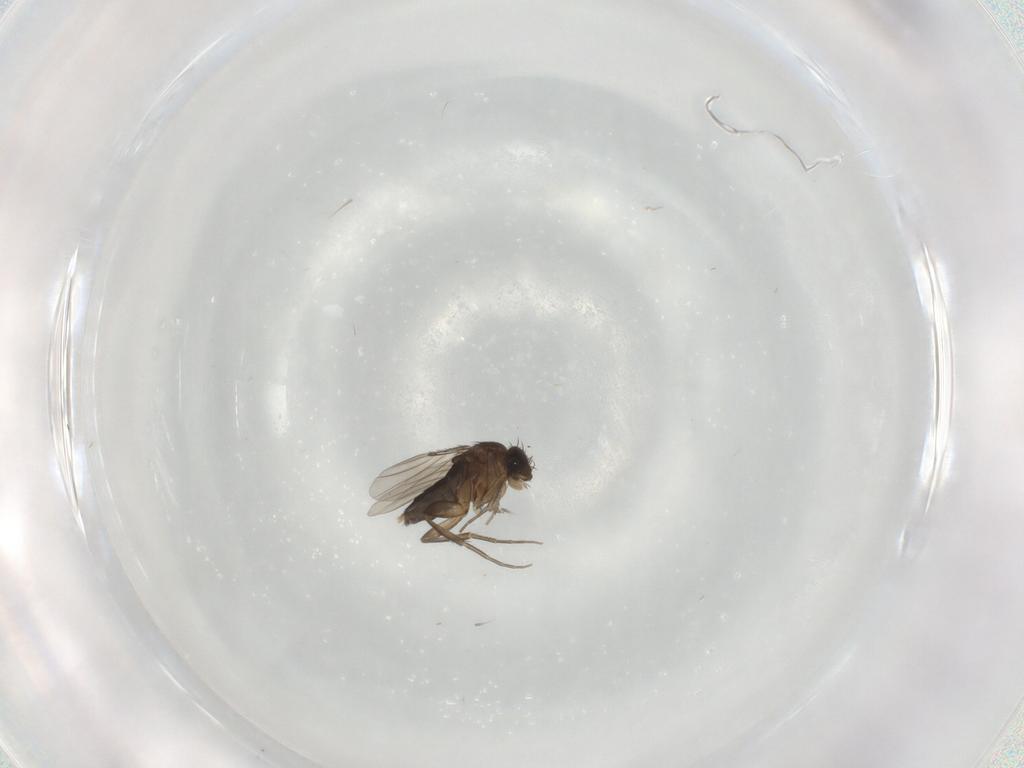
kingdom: Animalia
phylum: Arthropoda
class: Insecta
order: Diptera
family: Phoridae
